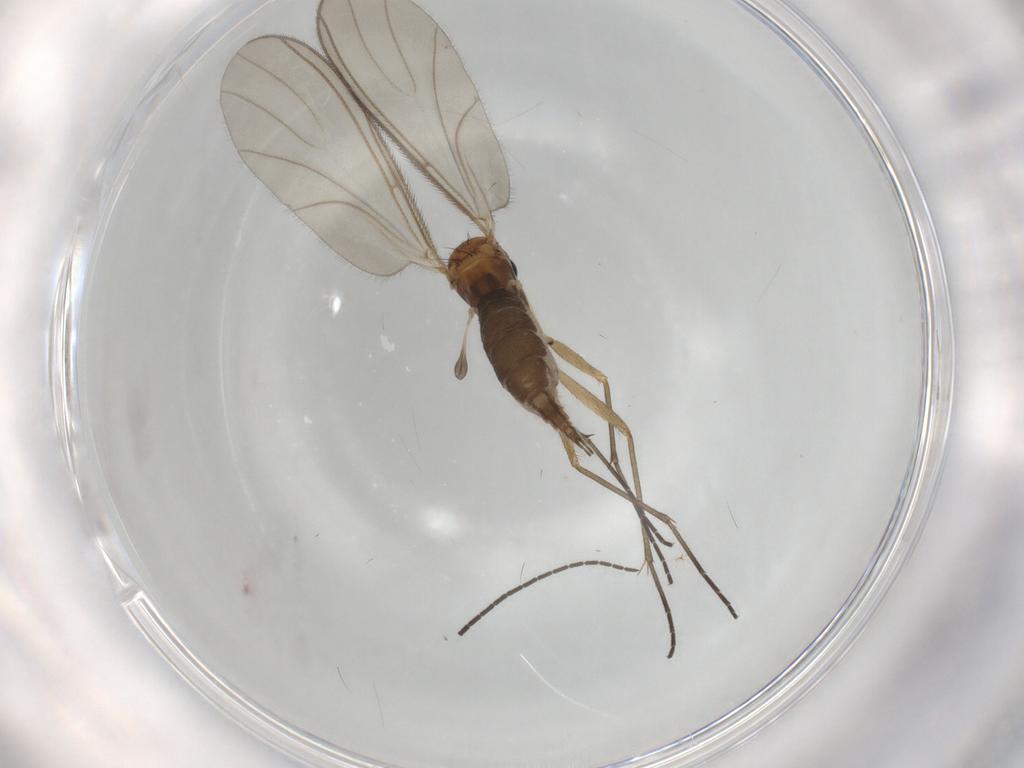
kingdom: Animalia
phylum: Arthropoda
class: Insecta
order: Diptera
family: Sciaridae
